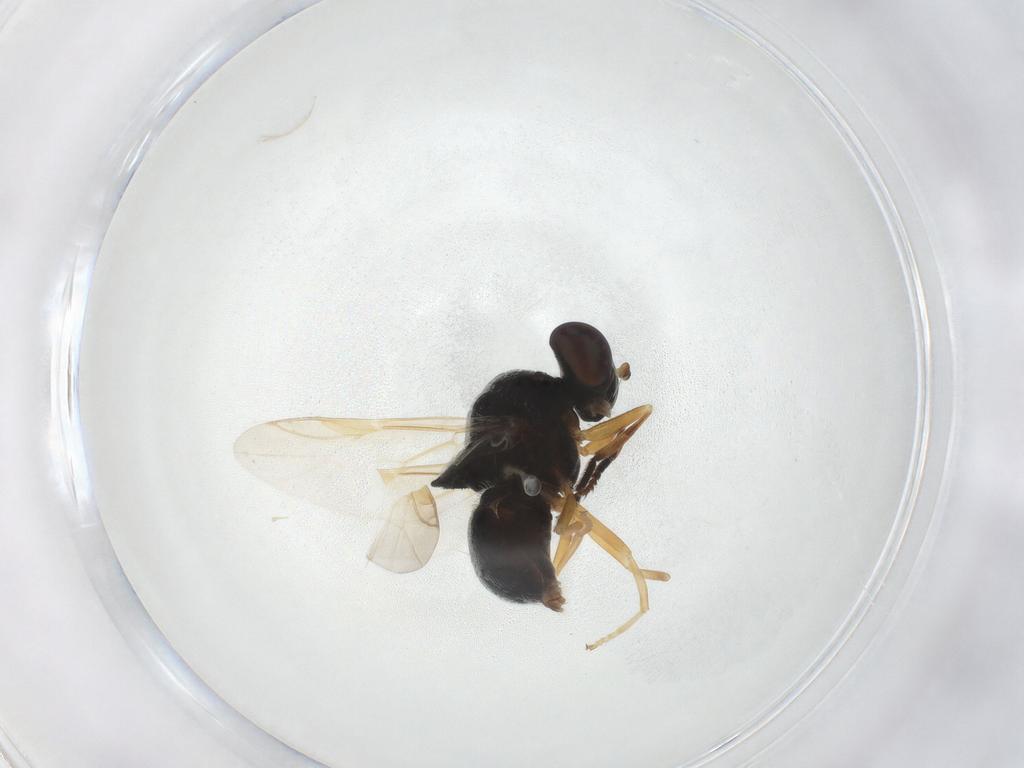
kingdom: Animalia
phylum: Arthropoda
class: Insecta
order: Diptera
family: Stratiomyidae
